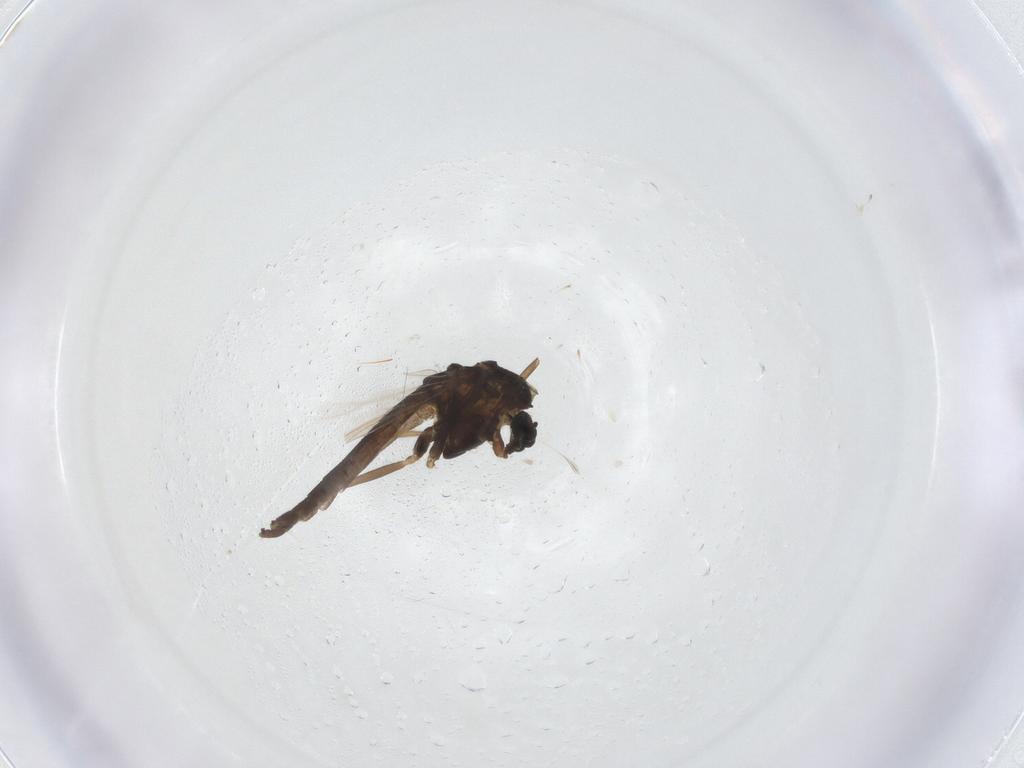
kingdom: Animalia
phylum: Arthropoda
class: Insecta
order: Diptera
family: Chironomidae
